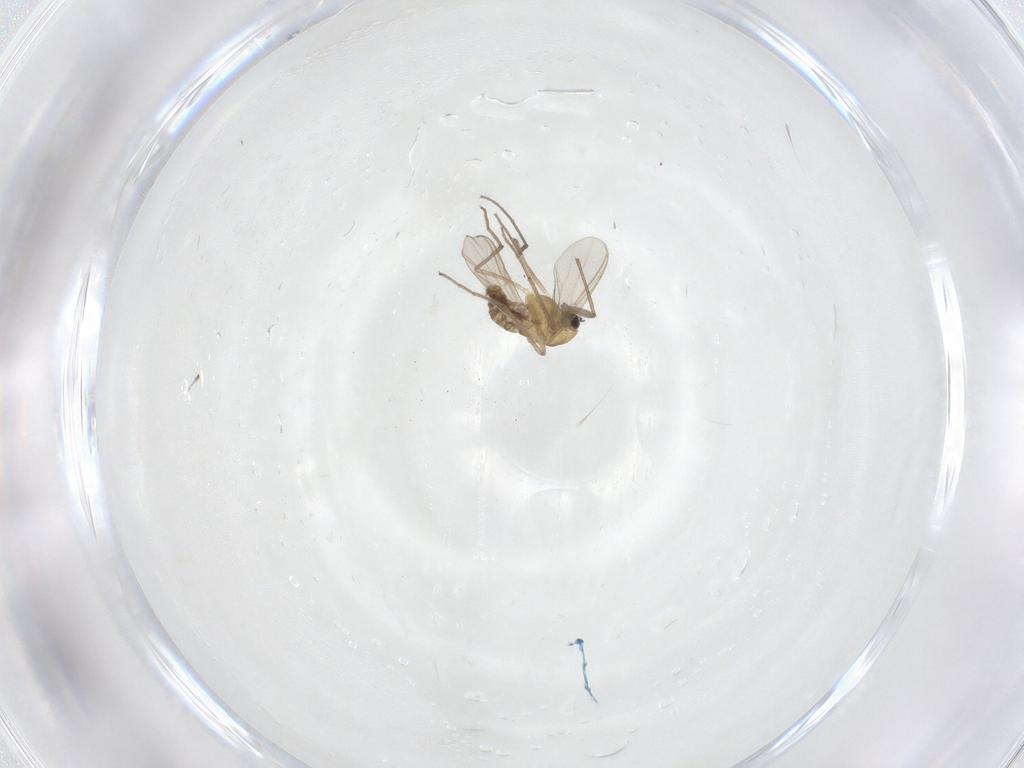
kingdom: Animalia
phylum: Arthropoda
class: Insecta
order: Diptera
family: Chironomidae
